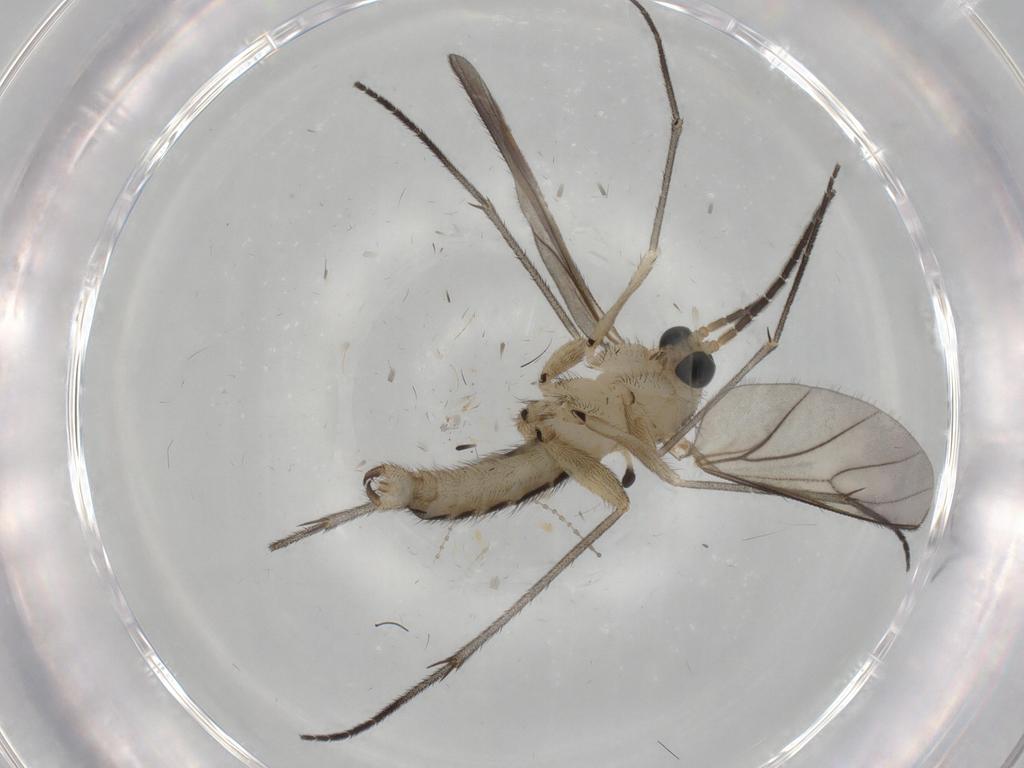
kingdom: Animalia
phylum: Arthropoda
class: Insecta
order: Diptera
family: Sciaridae
